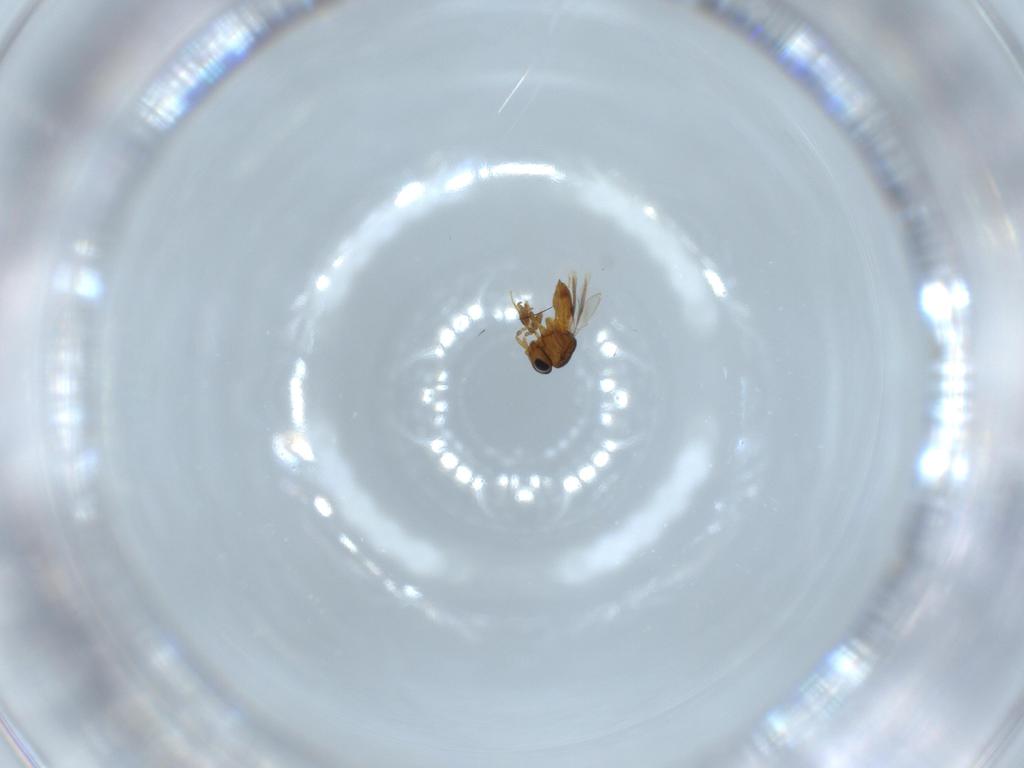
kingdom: Animalia
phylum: Arthropoda
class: Insecta
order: Hymenoptera
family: Scelionidae
